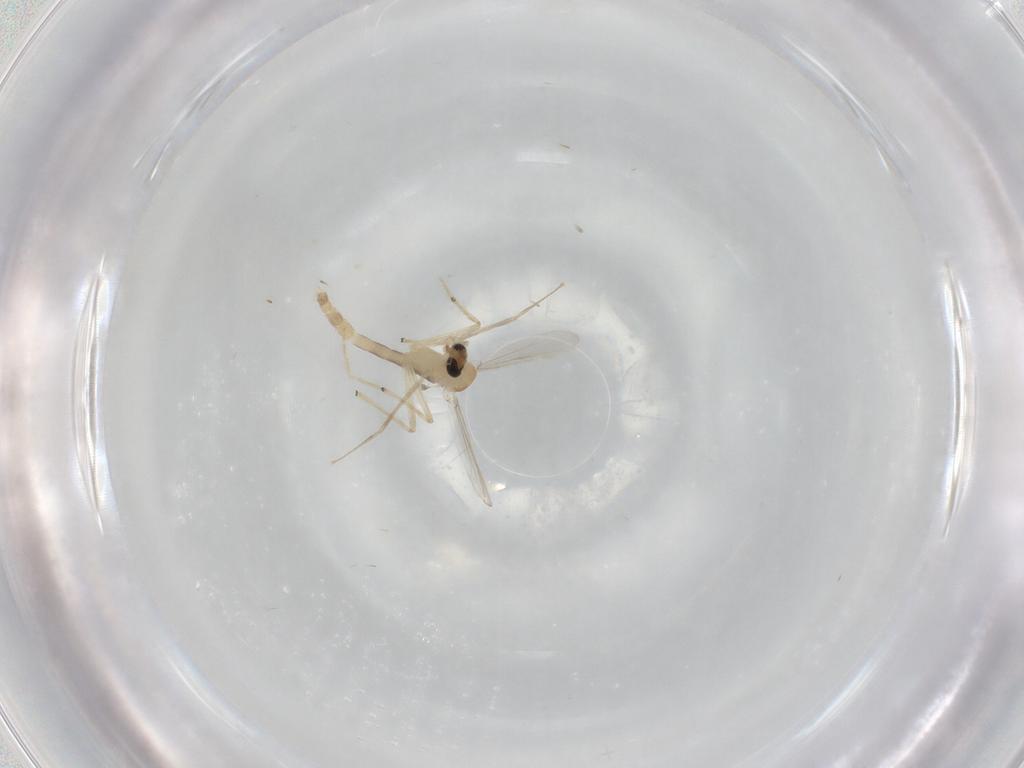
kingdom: Animalia
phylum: Arthropoda
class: Insecta
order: Diptera
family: Chironomidae
